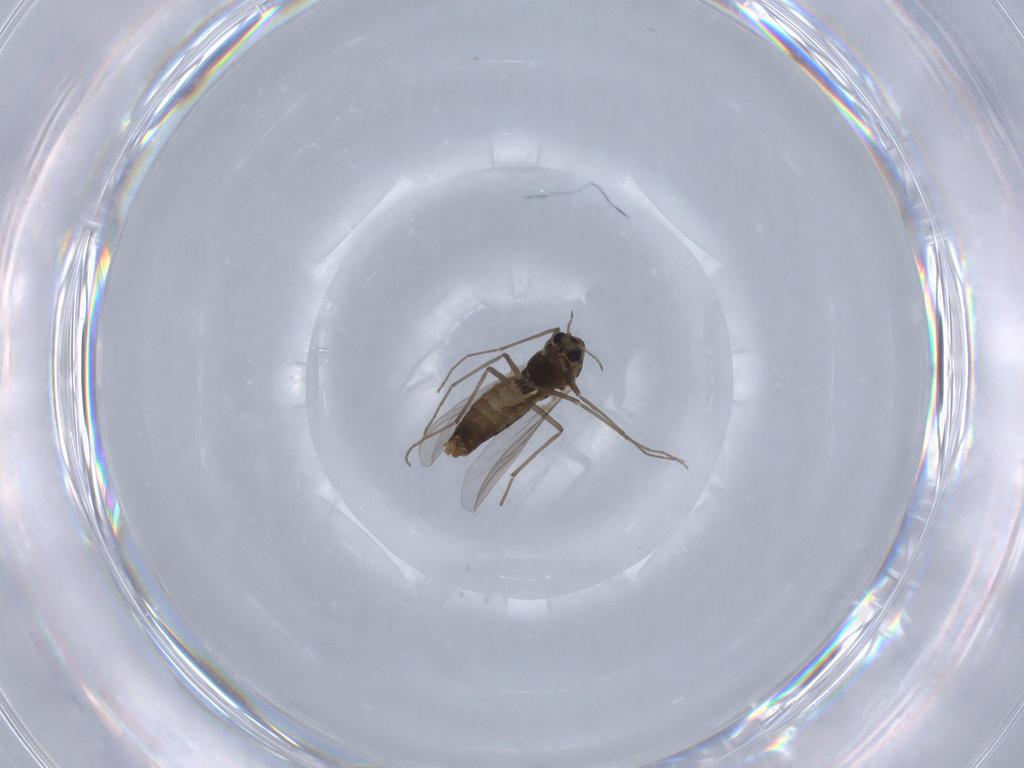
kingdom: Animalia
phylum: Arthropoda
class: Insecta
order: Diptera
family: Chironomidae
